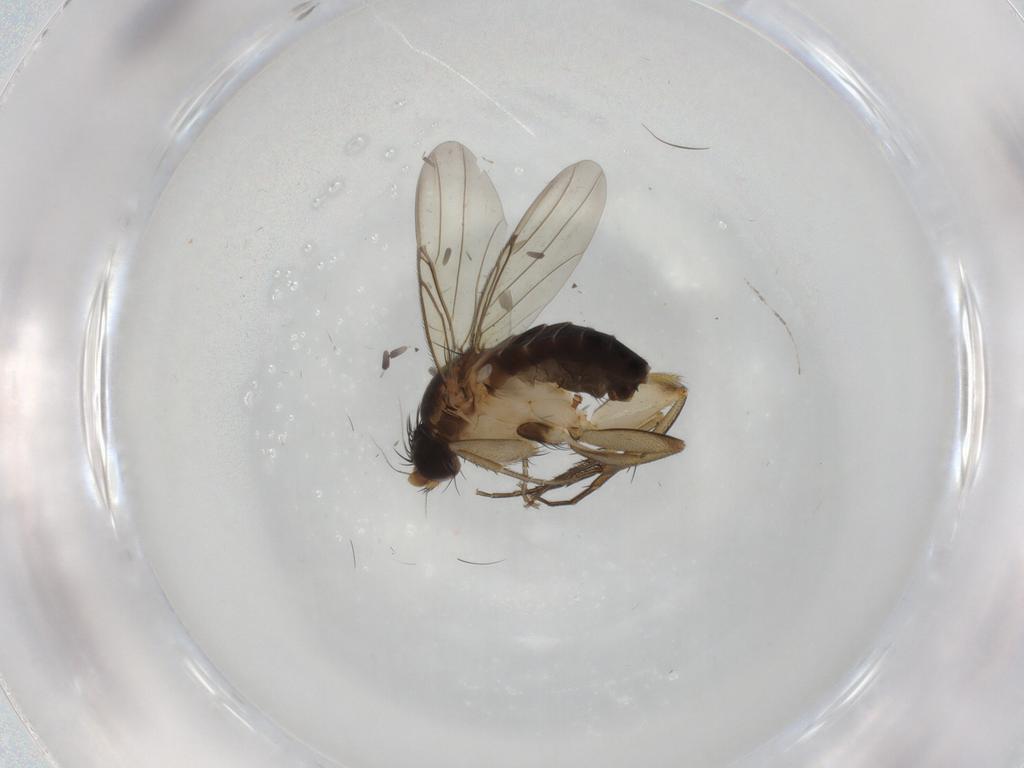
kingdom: Animalia
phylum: Arthropoda
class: Insecta
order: Diptera
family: Phoridae
